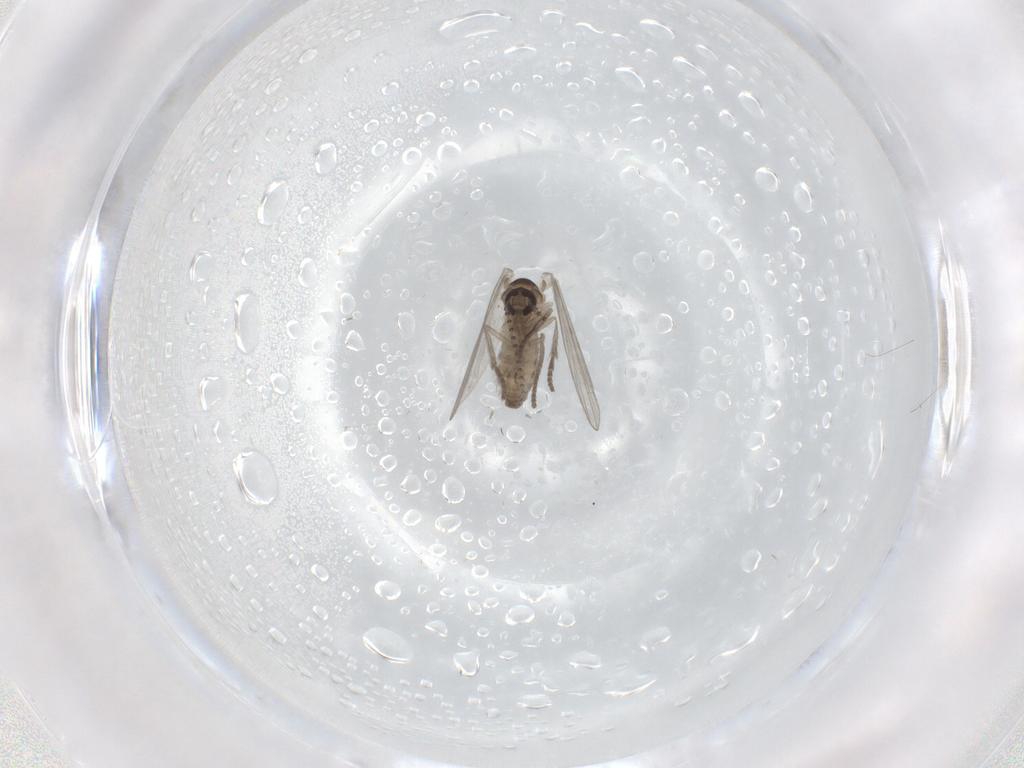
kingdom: Animalia
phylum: Arthropoda
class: Insecta
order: Diptera
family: Psychodidae
